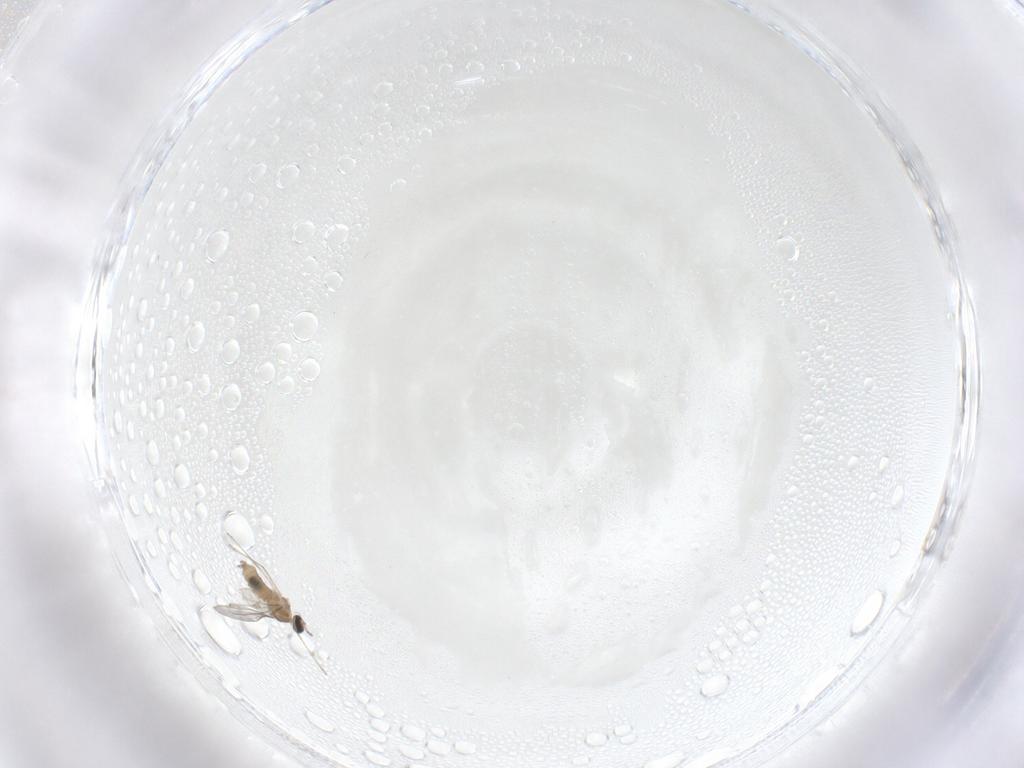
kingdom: Animalia
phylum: Arthropoda
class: Insecta
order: Diptera
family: Cecidomyiidae
